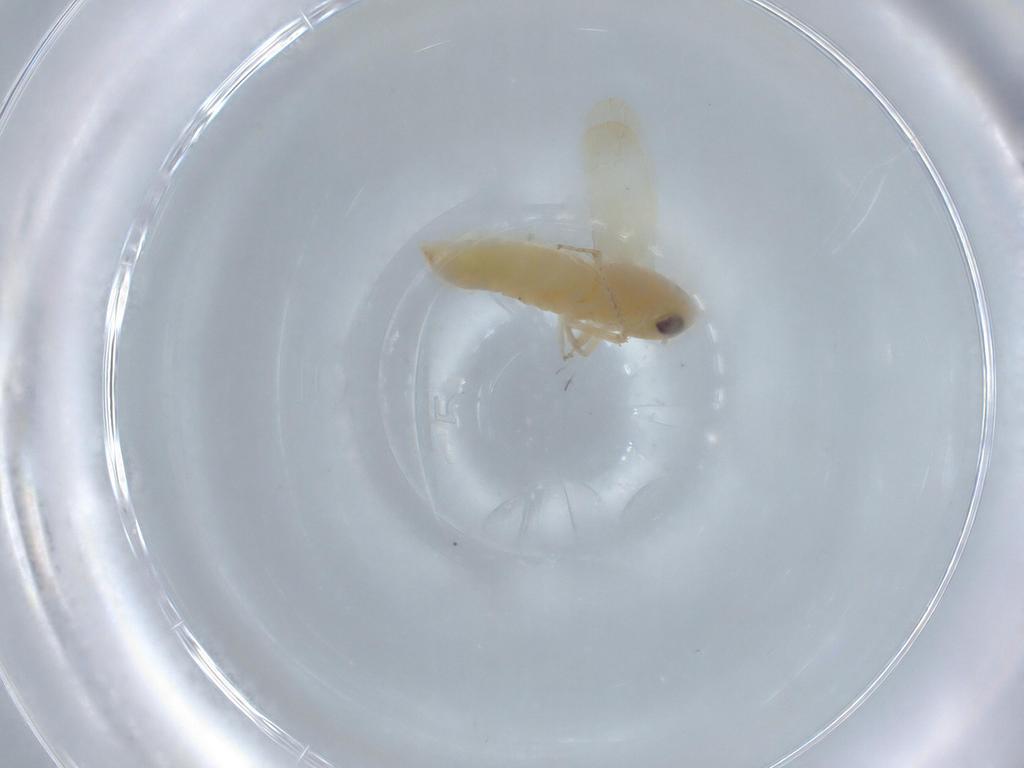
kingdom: Animalia
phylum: Arthropoda
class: Insecta
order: Hemiptera
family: Cicadellidae
